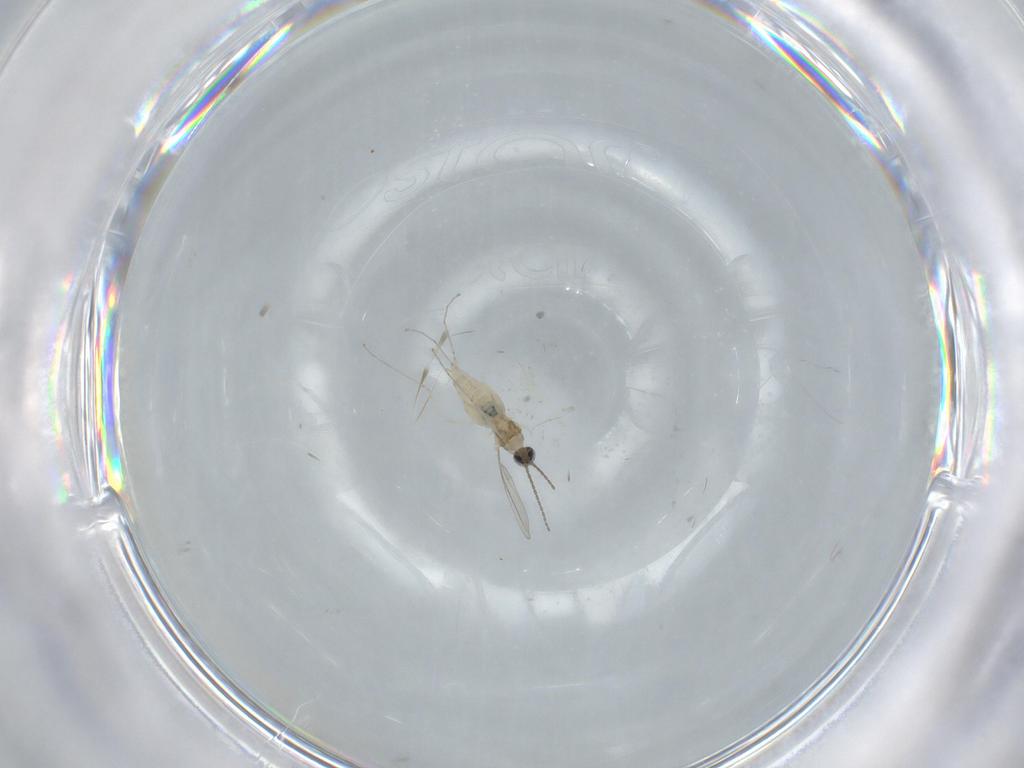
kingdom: Animalia
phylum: Arthropoda
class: Insecta
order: Diptera
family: Cecidomyiidae
